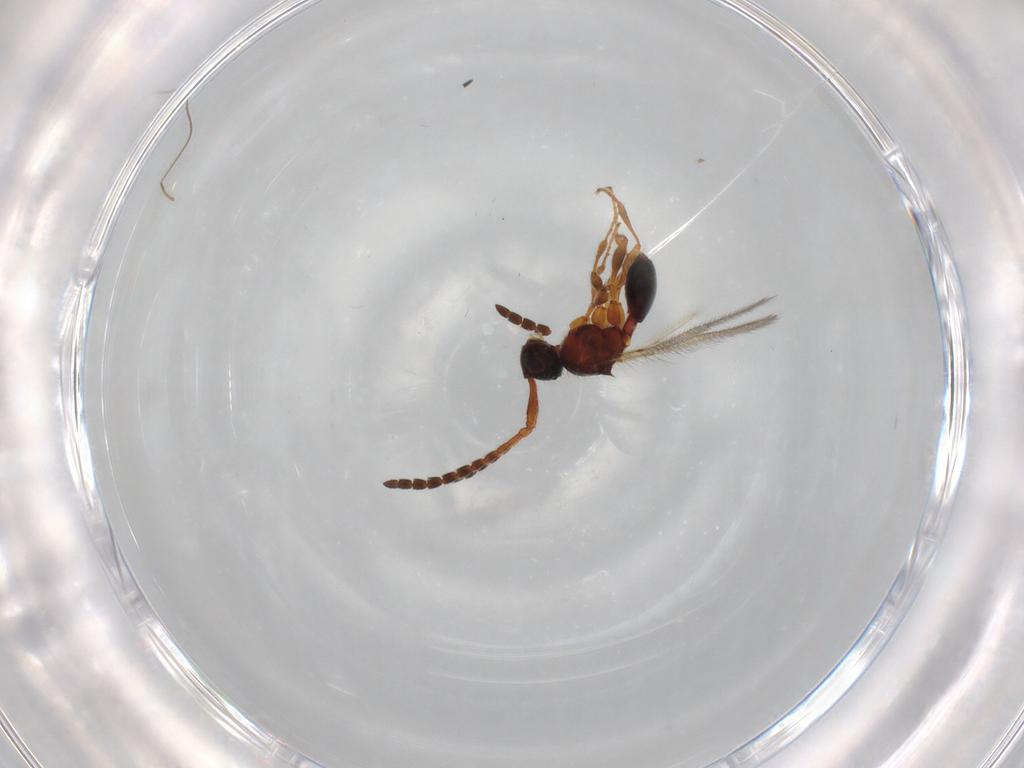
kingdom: Animalia
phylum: Arthropoda
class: Insecta
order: Hymenoptera
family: Diapriidae
